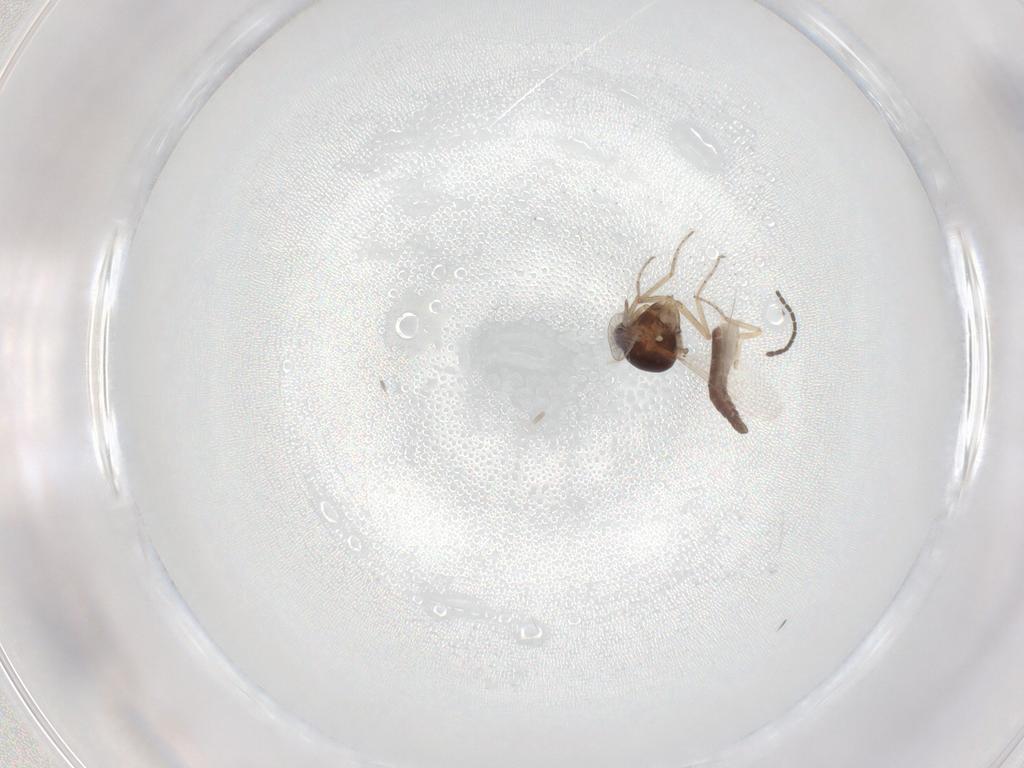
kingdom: Animalia
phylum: Arthropoda
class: Insecta
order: Diptera
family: Ceratopogonidae
